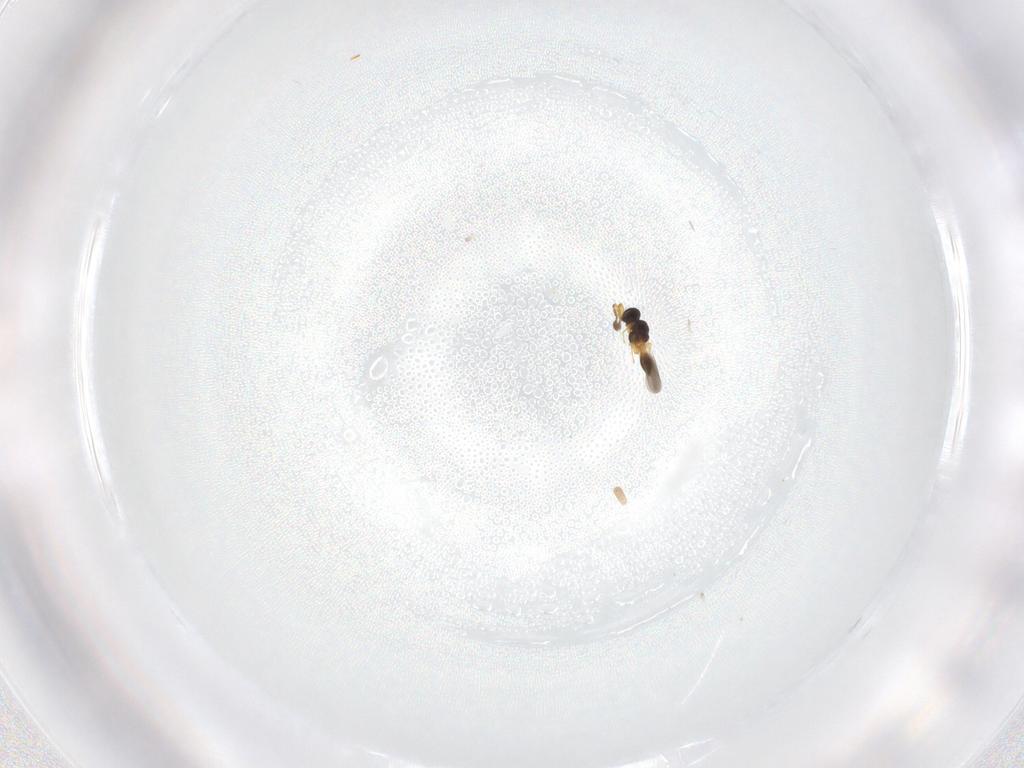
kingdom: Animalia
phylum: Arthropoda
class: Insecta
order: Hymenoptera
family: Platygastridae
